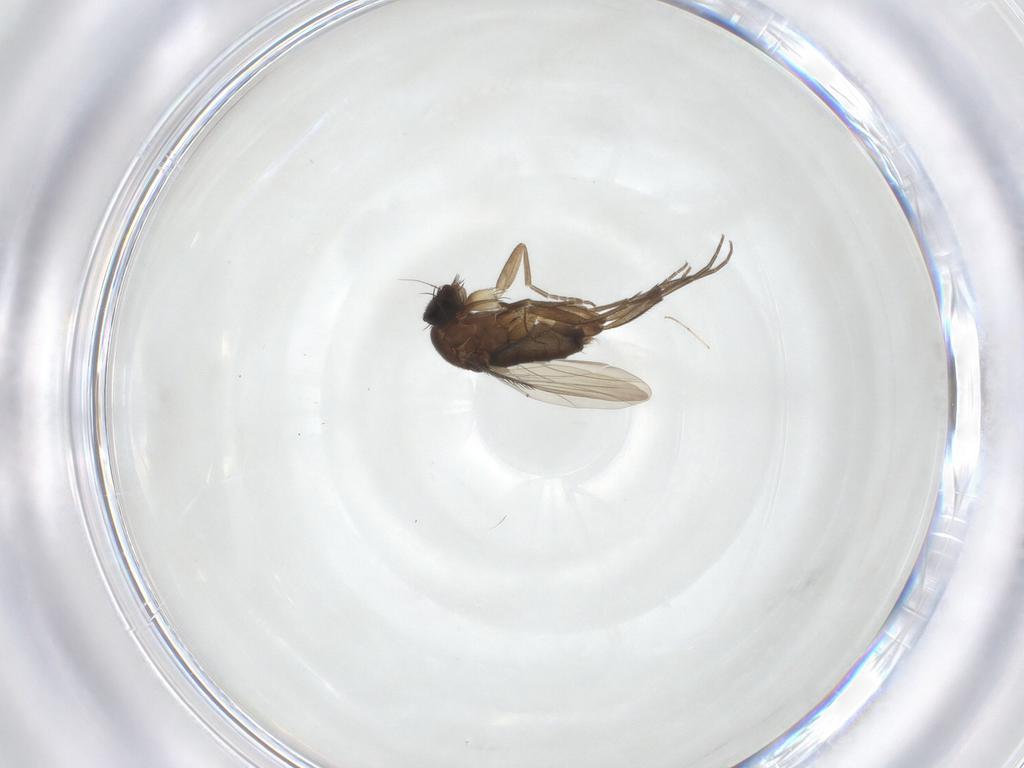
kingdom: Animalia
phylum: Arthropoda
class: Insecta
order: Diptera
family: Phoridae
